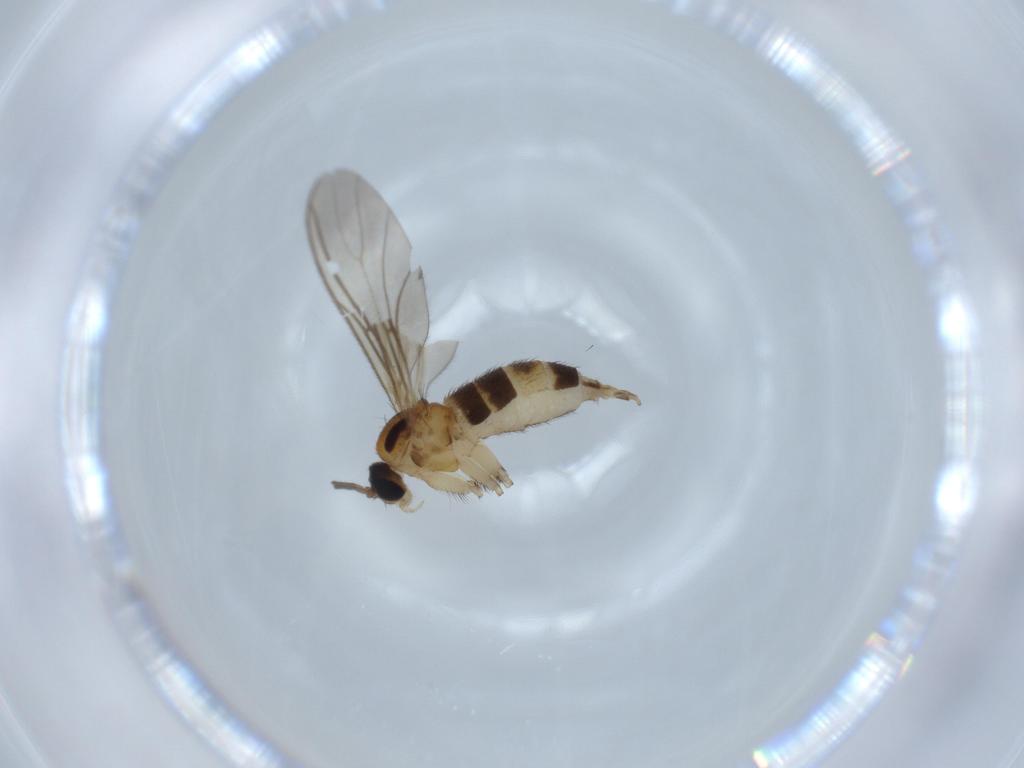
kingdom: Animalia
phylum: Arthropoda
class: Insecta
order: Diptera
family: Sciaridae
